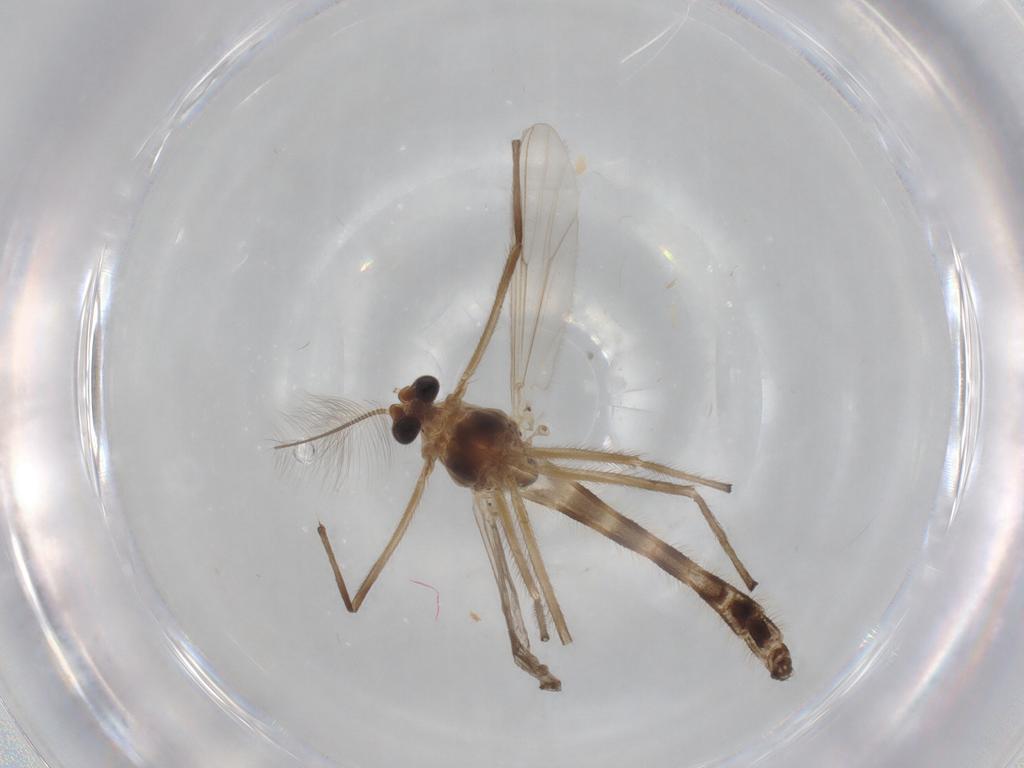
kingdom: Animalia
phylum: Arthropoda
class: Insecta
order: Diptera
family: Chironomidae
